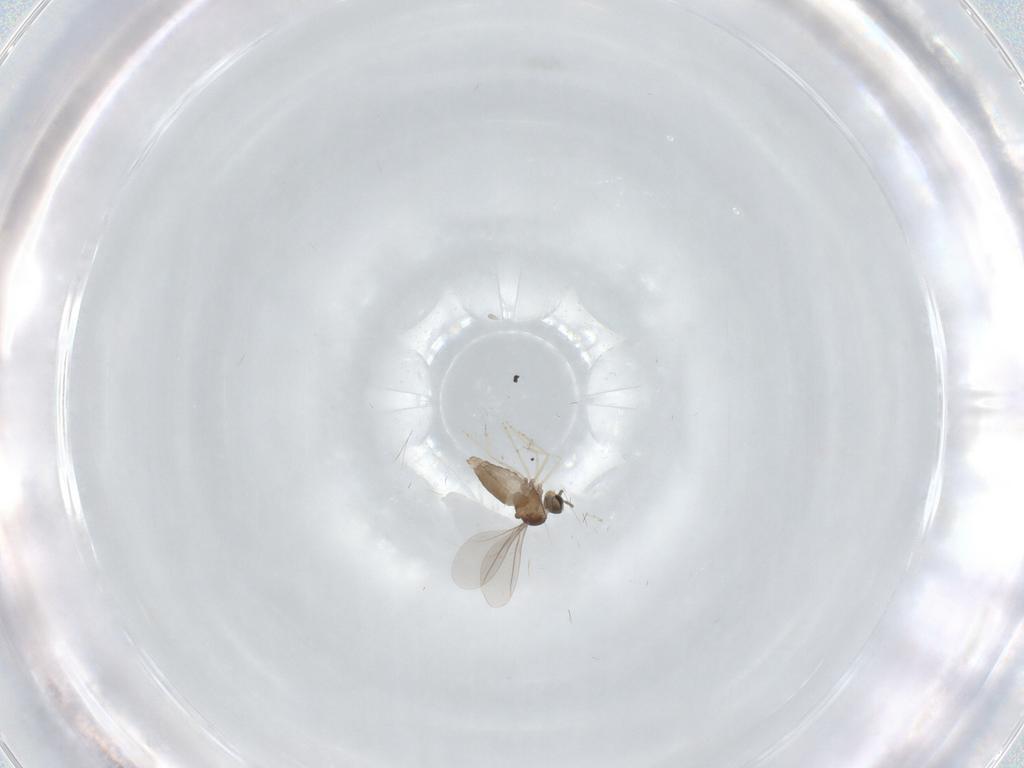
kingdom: Animalia
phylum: Arthropoda
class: Insecta
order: Diptera
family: Cecidomyiidae
